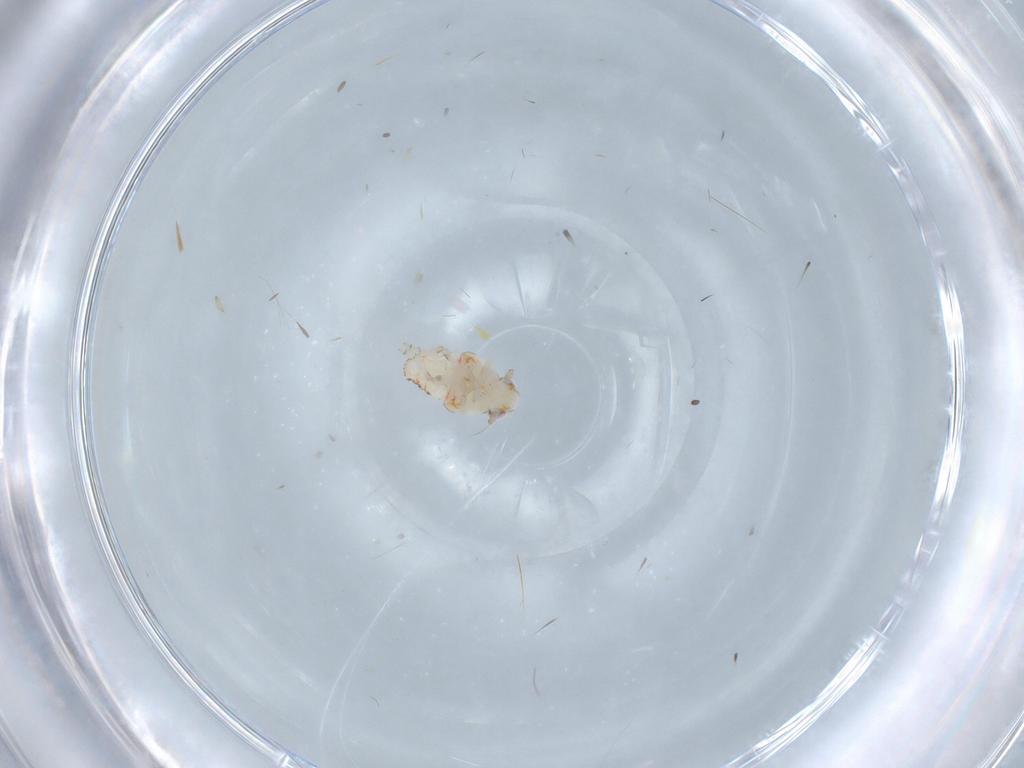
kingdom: Animalia
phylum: Arthropoda
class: Insecta
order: Hemiptera
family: Nogodinidae
